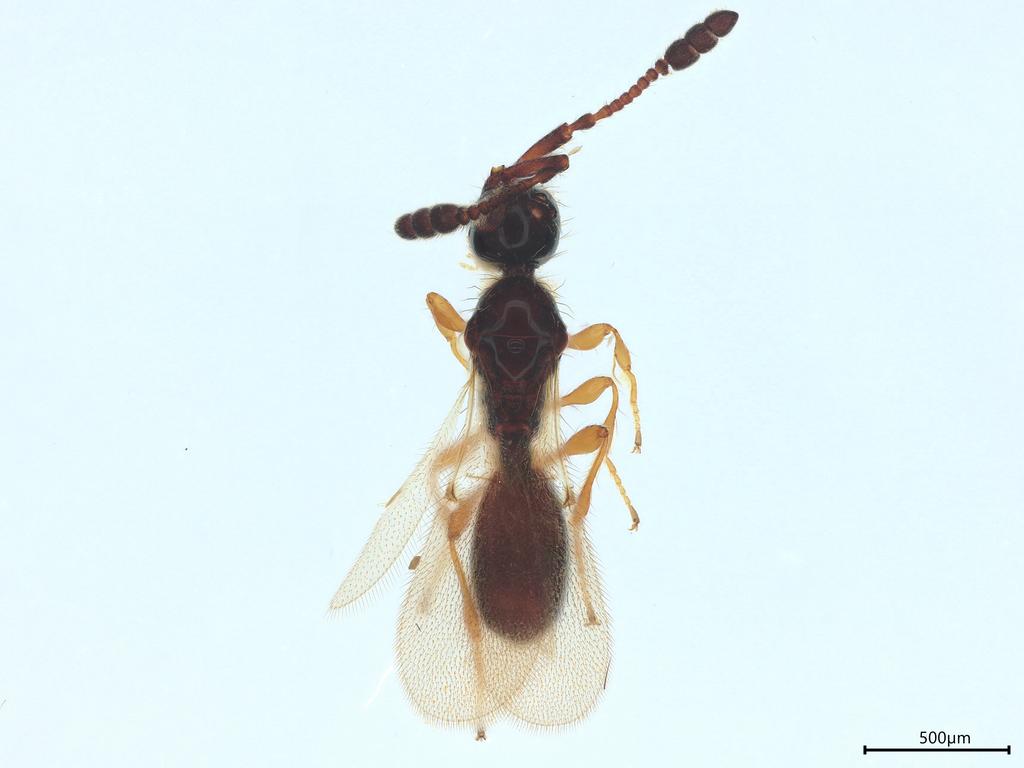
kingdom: Animalia
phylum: Arthropoda
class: Insecta
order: Hymenoptera
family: Diapriidae
